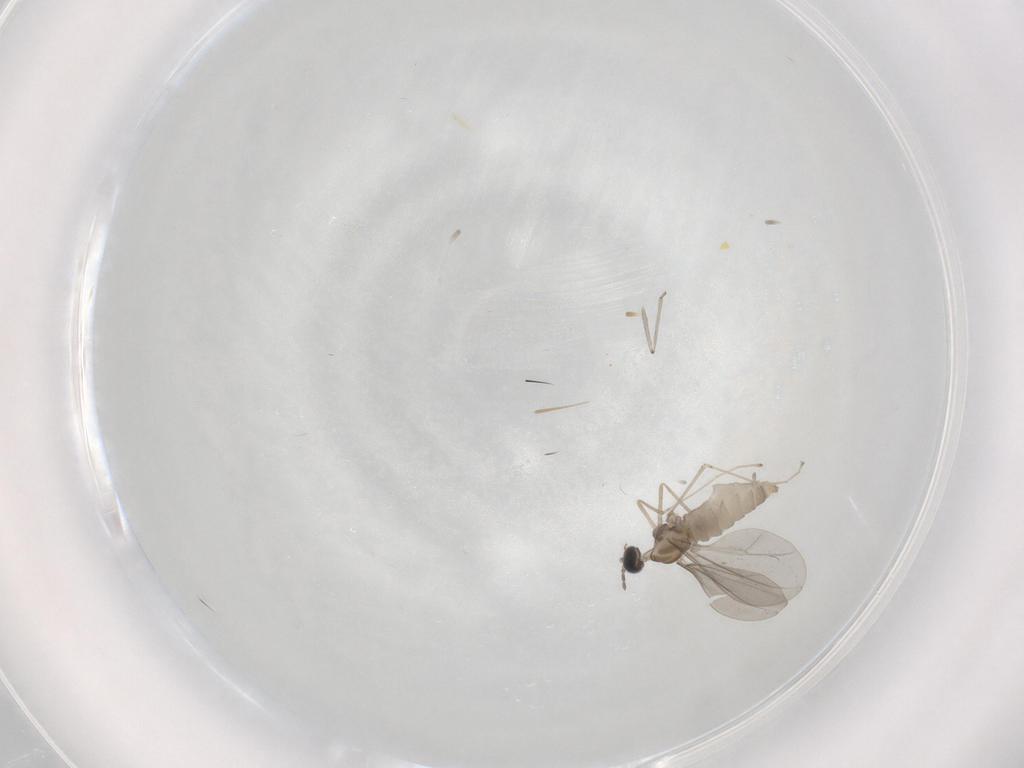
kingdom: Animalia
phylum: Arthropoda
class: Insecta
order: Diptera
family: Cecidomyiidae
